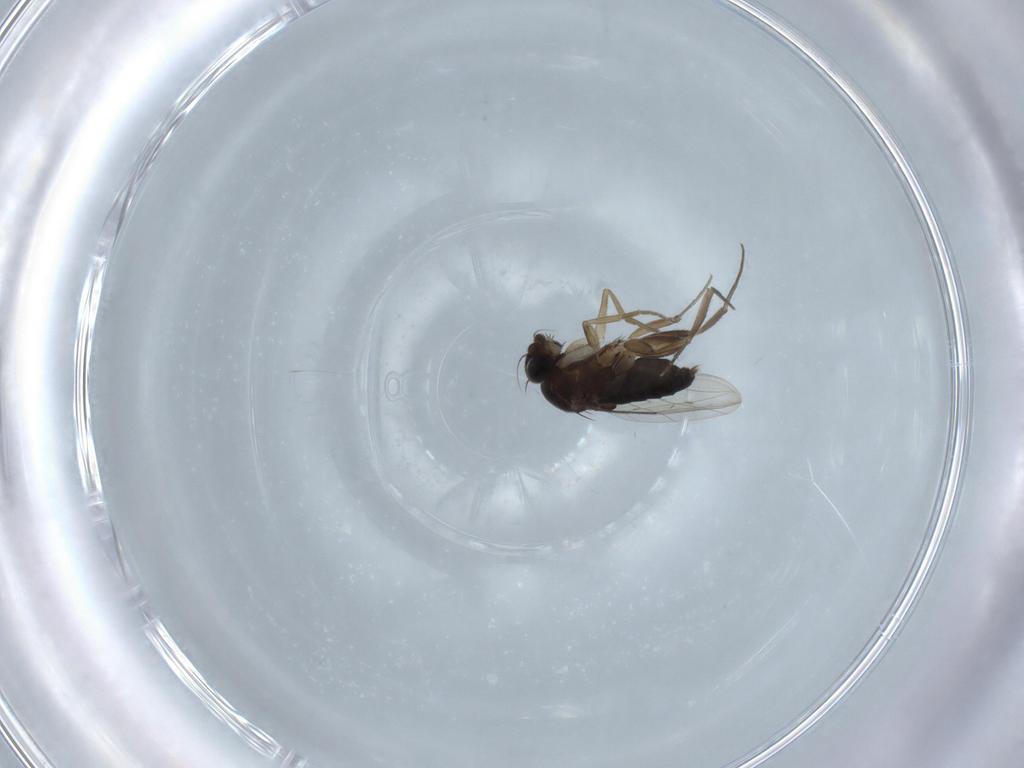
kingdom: Animalia
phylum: Arthropoda
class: Insecta
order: Diptera
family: Phoridae
